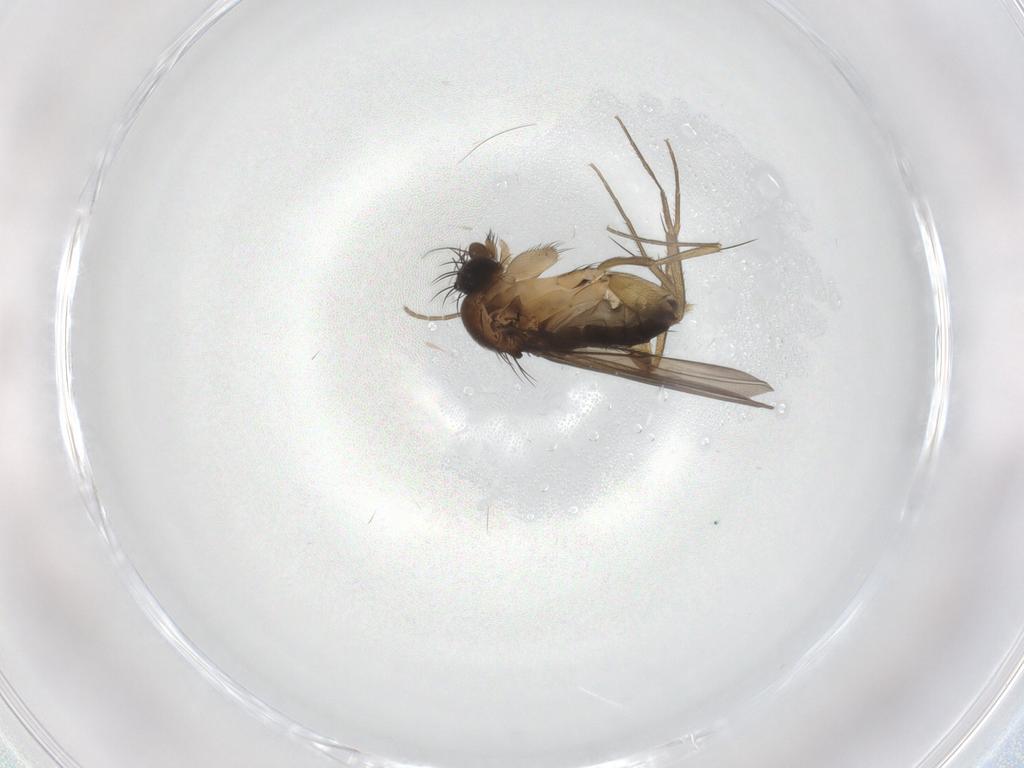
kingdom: Animalia
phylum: Arthropoda
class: Insecta
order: Diptera
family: Phoridae
